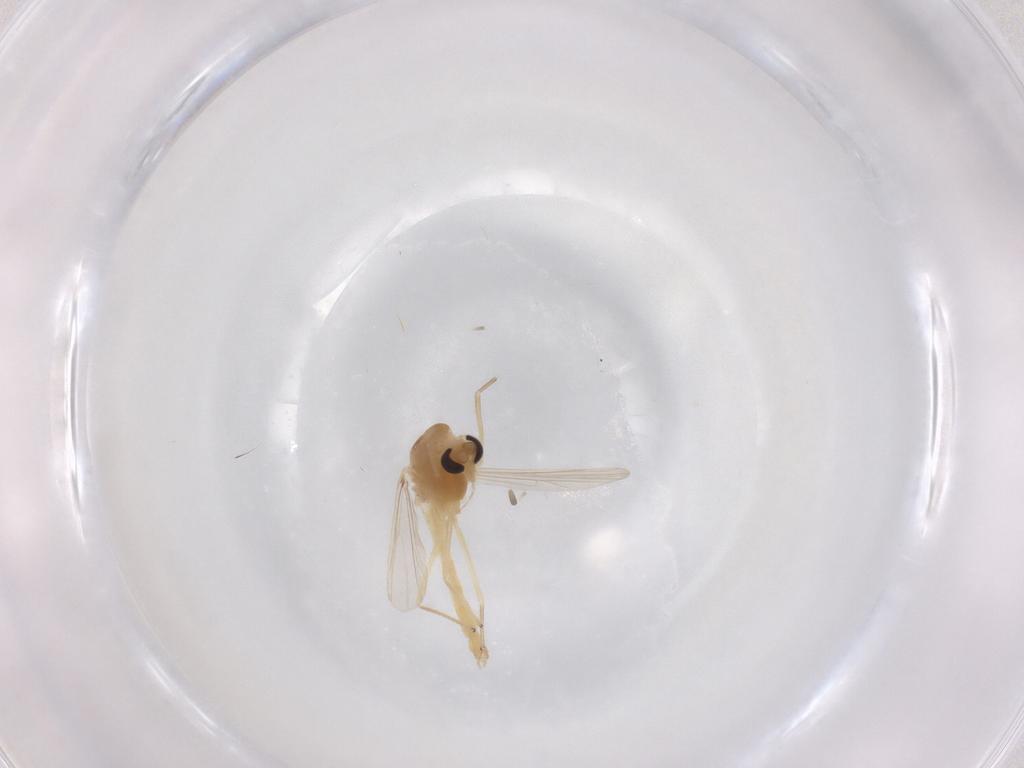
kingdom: Animalia
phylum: Arthropoda
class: Insecta
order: Diptera
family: Chironomidae
